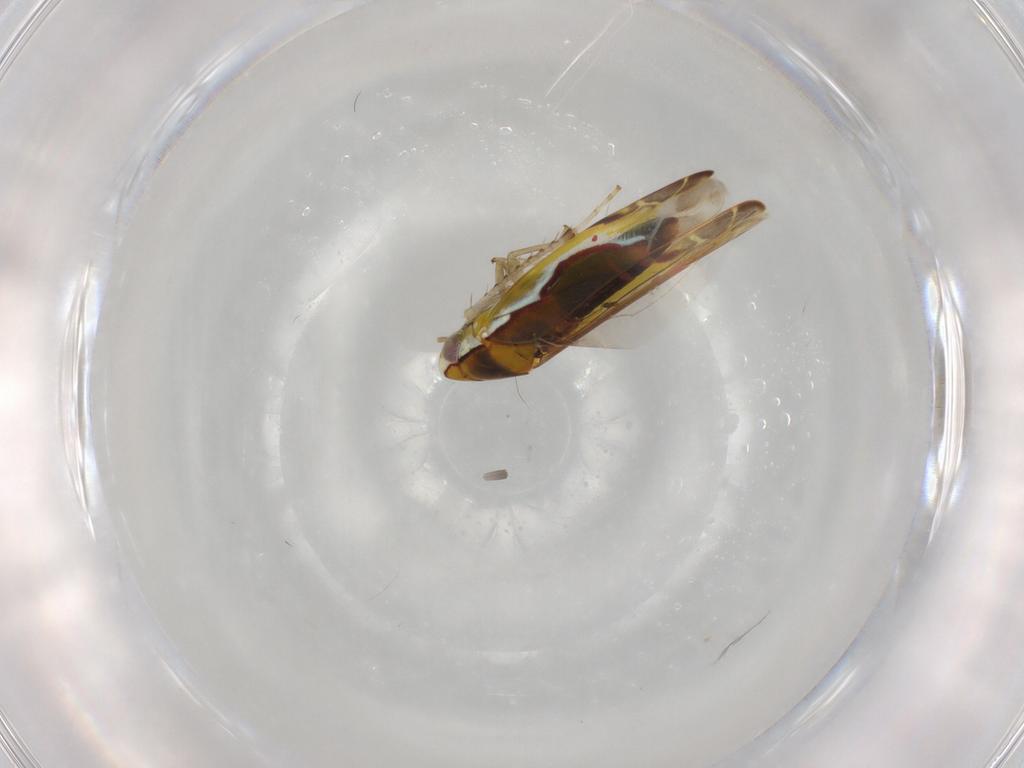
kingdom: Animalia
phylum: Arthropoda
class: Insecta
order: Hemiptera
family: Cicadellidae
